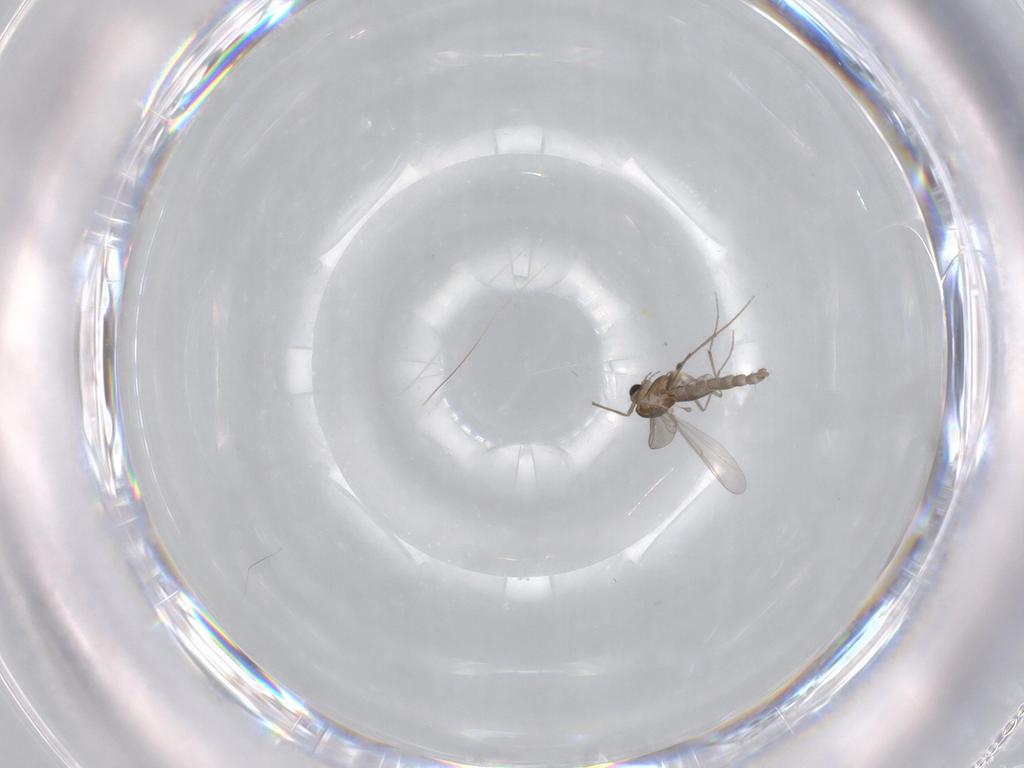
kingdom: Animalia
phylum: Arthropoda
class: Insecta
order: Diptera
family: Chironomidae
